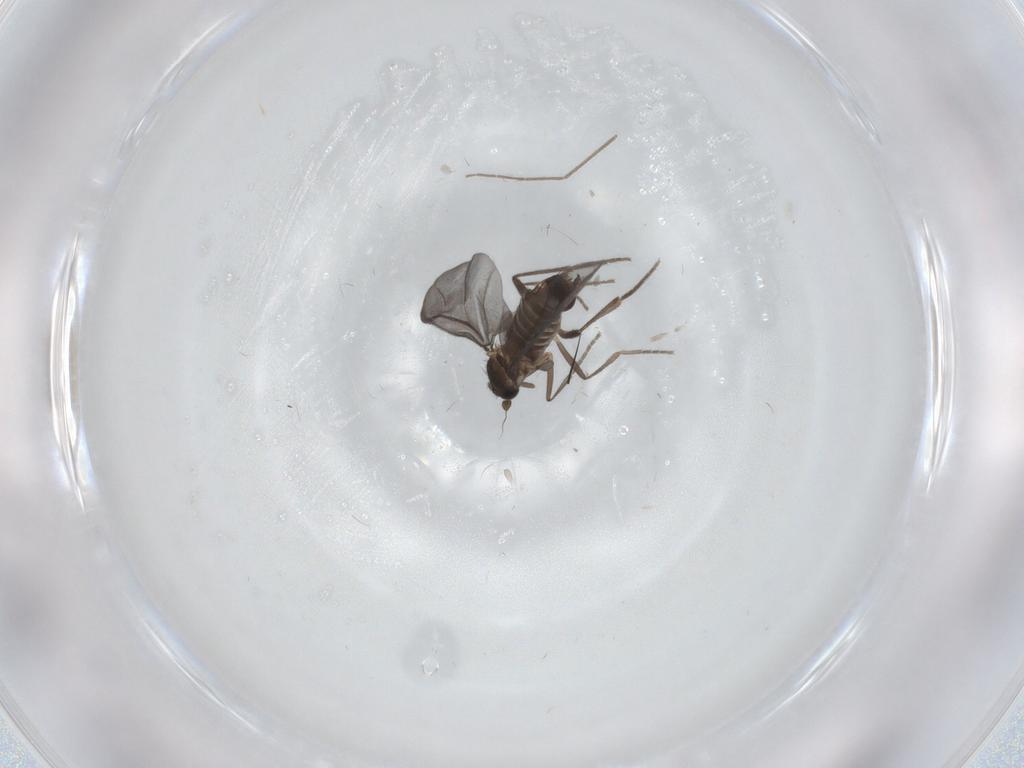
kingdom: Animalia
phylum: Arthropoda
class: Insecta
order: Diptera
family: Phoridae
